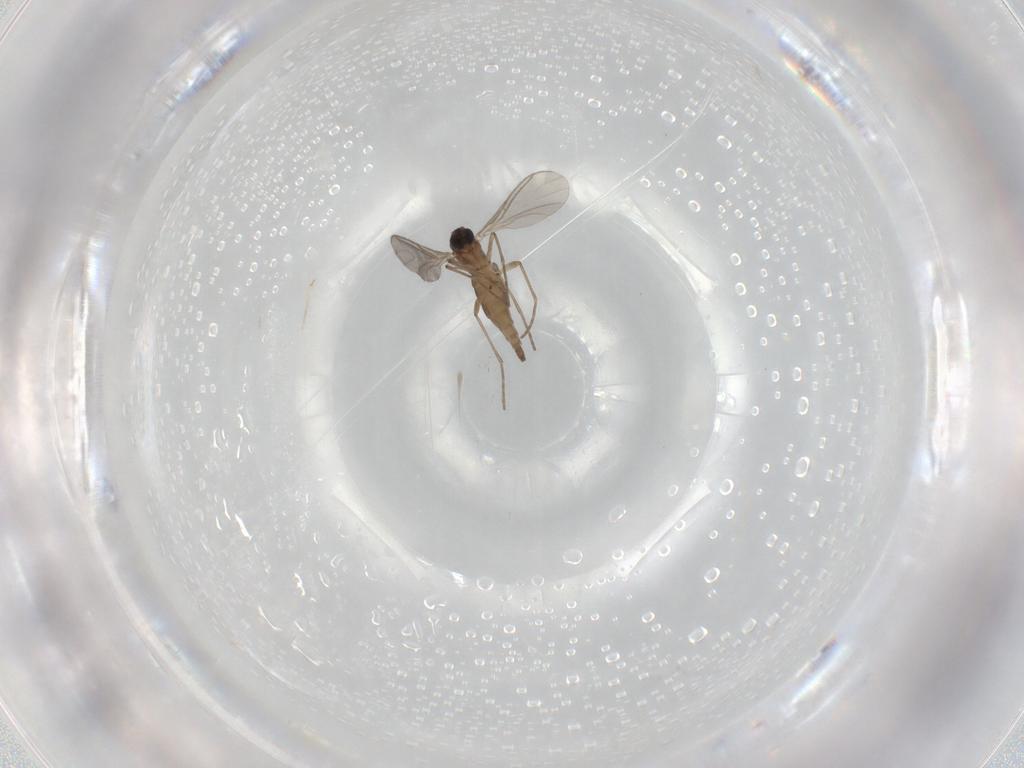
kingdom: Animalia
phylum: Arthropoda
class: Insecta
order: Diptera
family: Sciaridae
